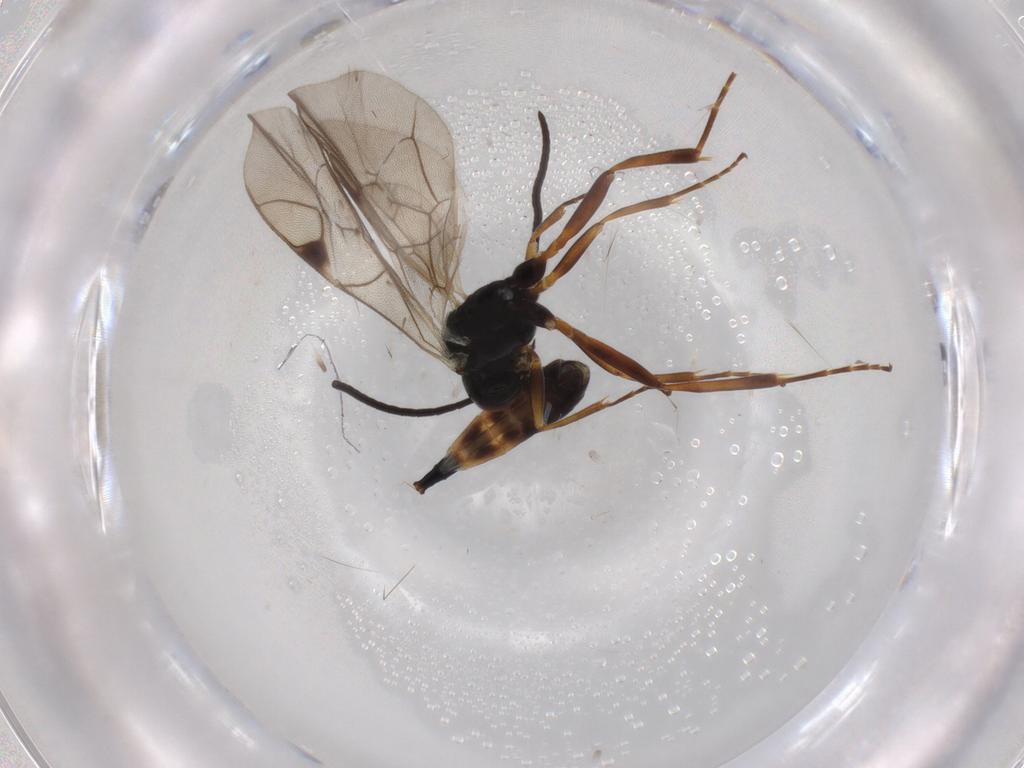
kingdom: Animalia
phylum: Arthropoda
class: Insecta
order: Hymenoptera
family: Ichneumonidae
